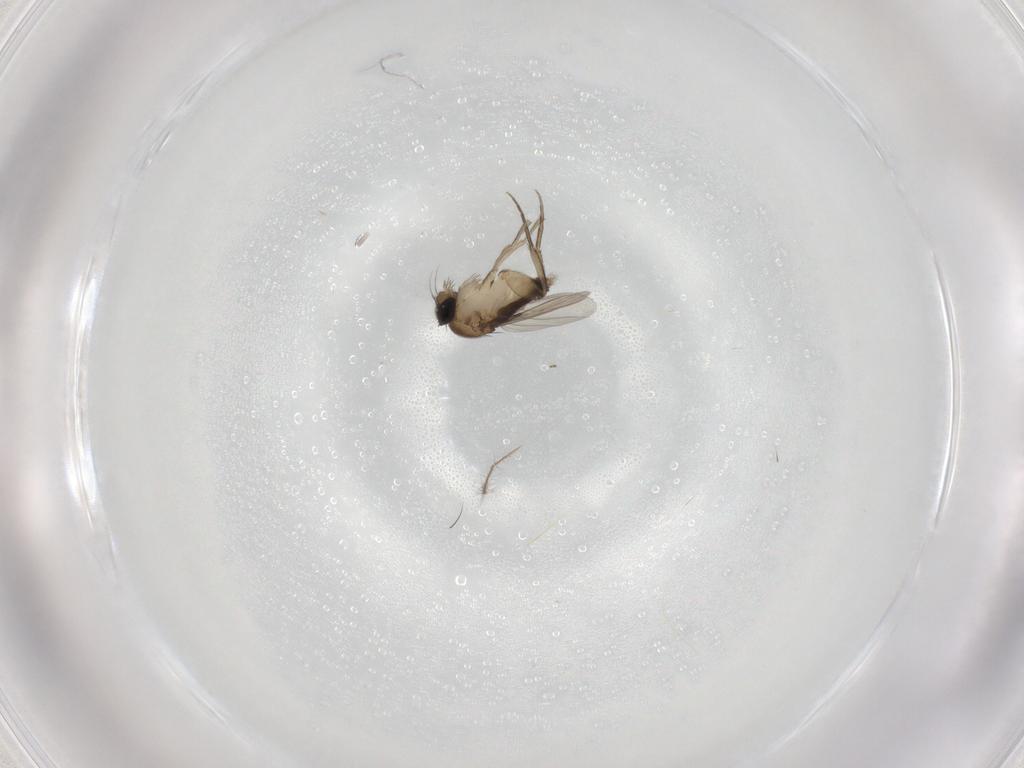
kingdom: Animalia
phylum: Arthropoda
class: Insecta
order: Diptera
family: Phoridae
